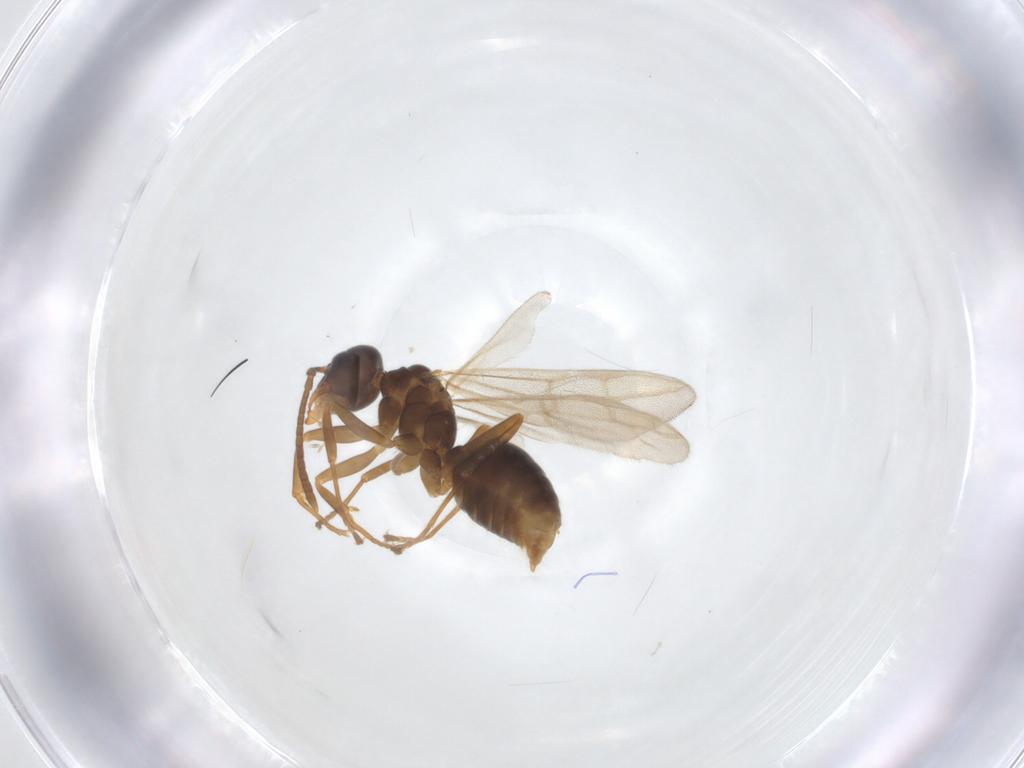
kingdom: Animalia
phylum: Arthropoda
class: Insecta
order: Hymenoptera
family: Formicidae
